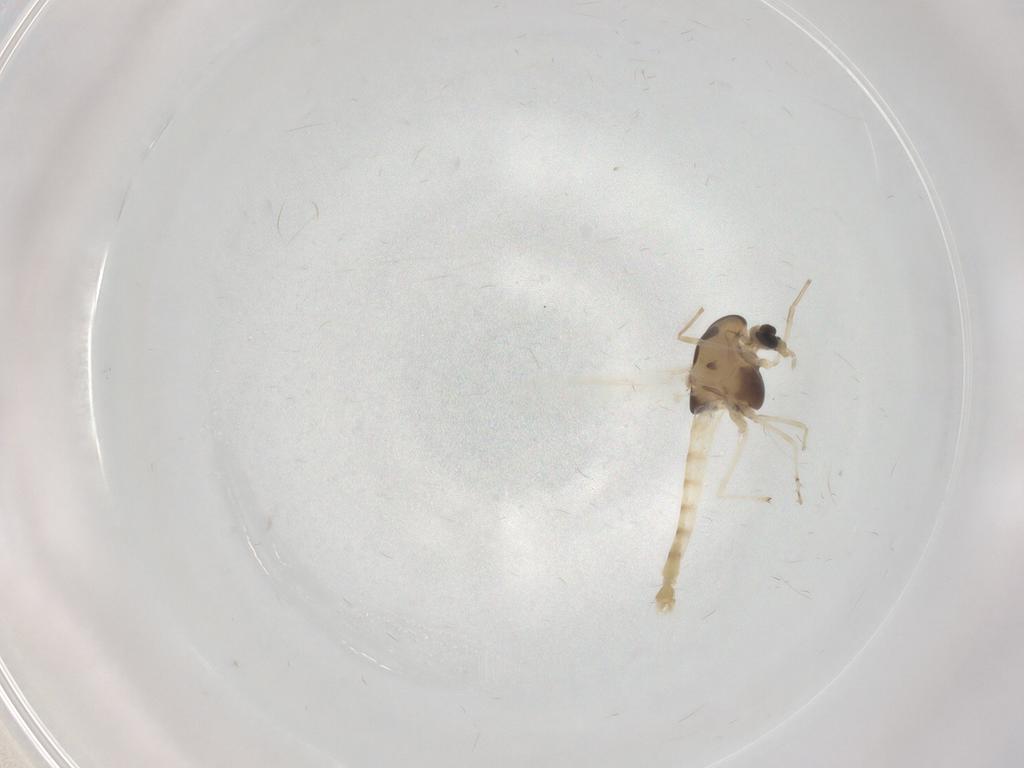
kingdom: Animalia
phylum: Arthropoda
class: Insecta
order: Diptera
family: Chironomidae
